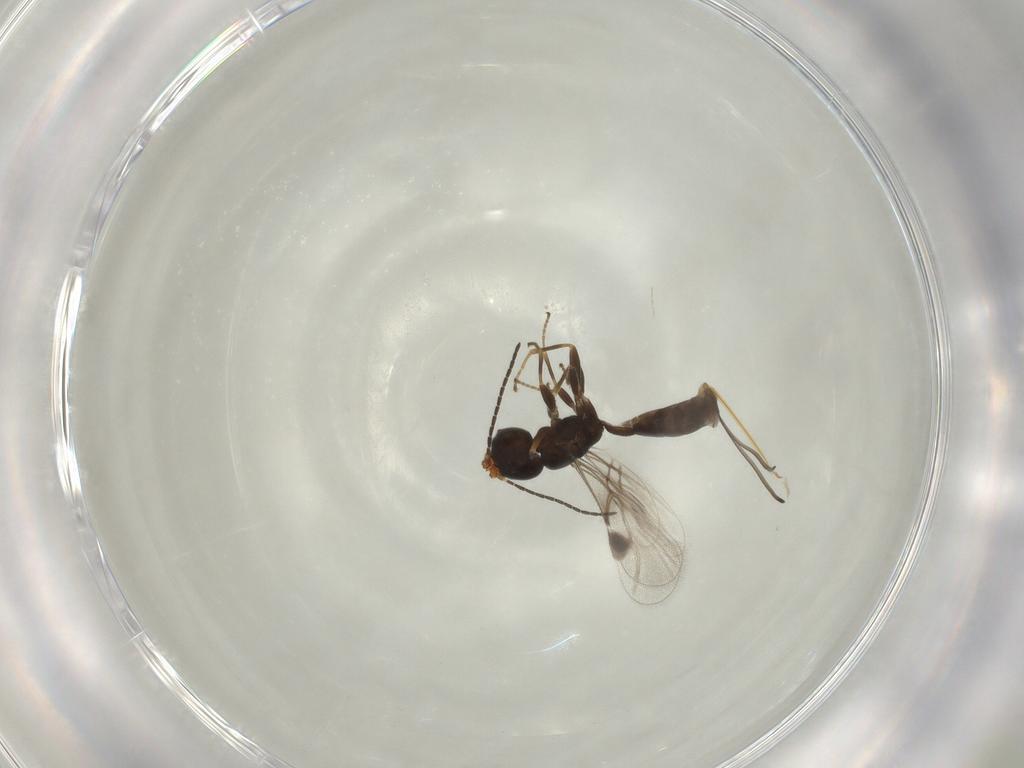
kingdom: Animalia
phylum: Arthropoda
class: Insecta
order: Hymenoptera
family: Braconidae
